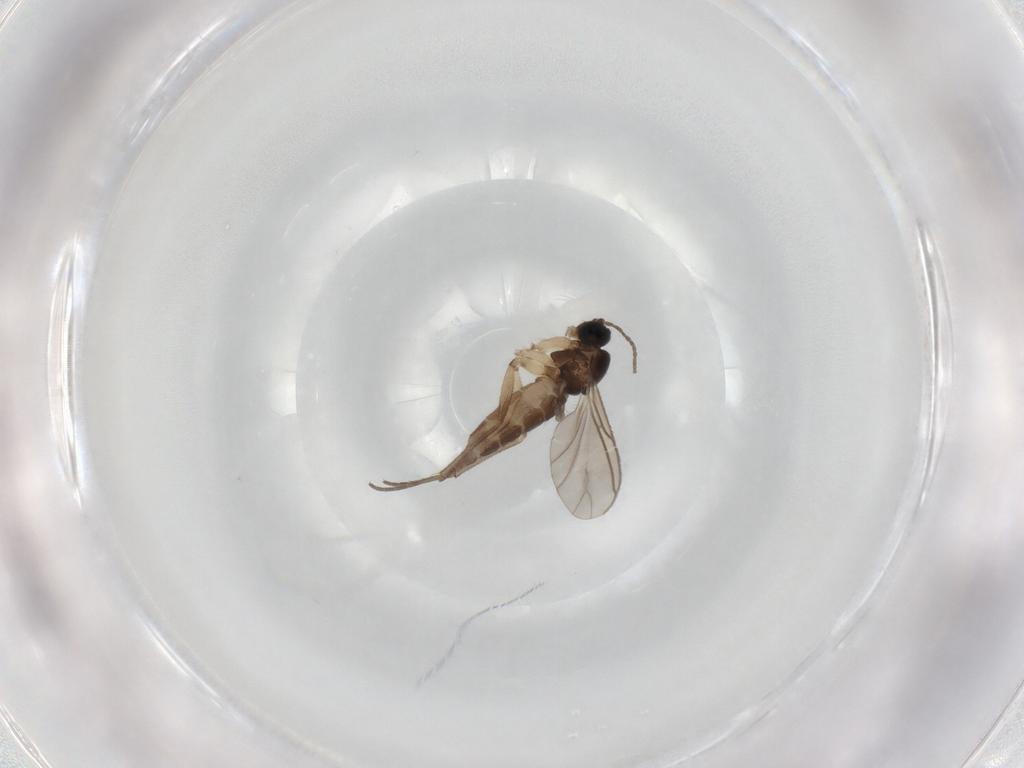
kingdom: Animalia
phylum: Arthropoda
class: Insecta
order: Diptera
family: Sciaridae
